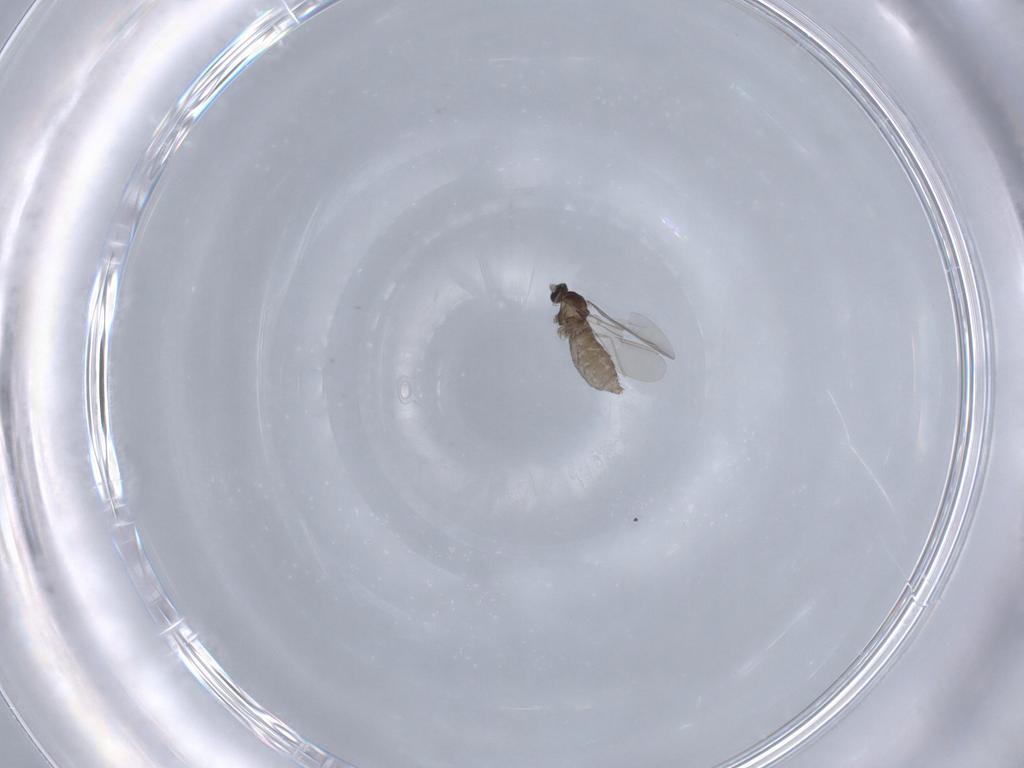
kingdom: Animalia
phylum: Arthropoda
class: Insecta
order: Diptera
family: Cecidomyiidae
